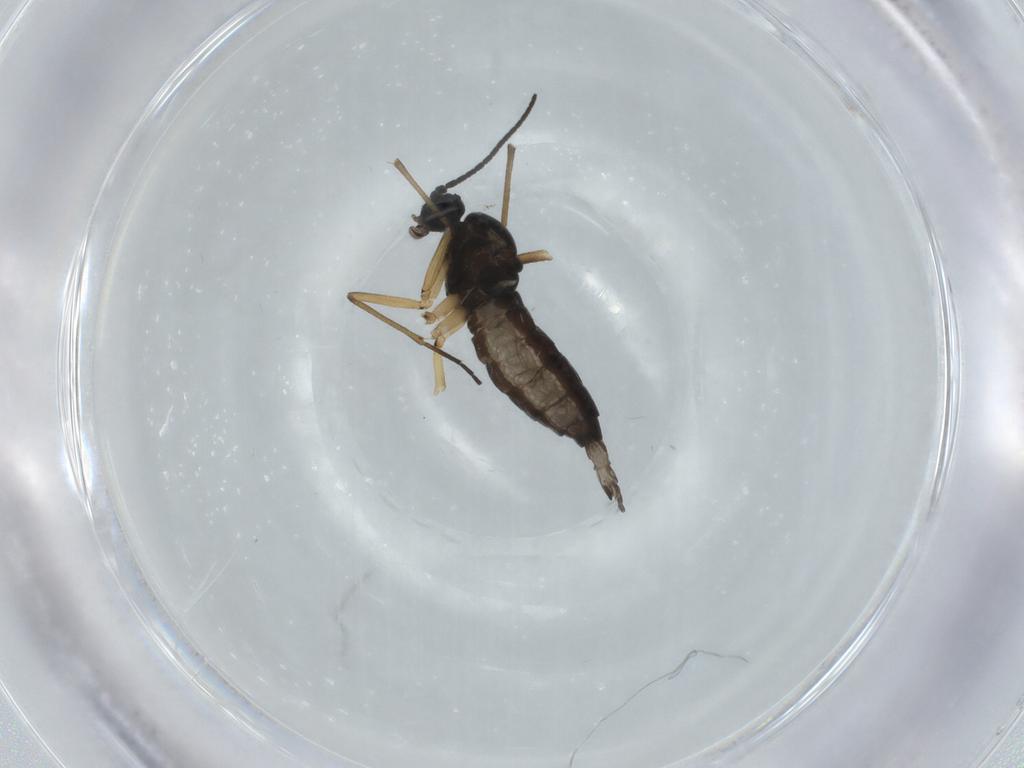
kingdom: Animalia
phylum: Arthropoda
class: Insecta
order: Diptera
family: Sciaridae
